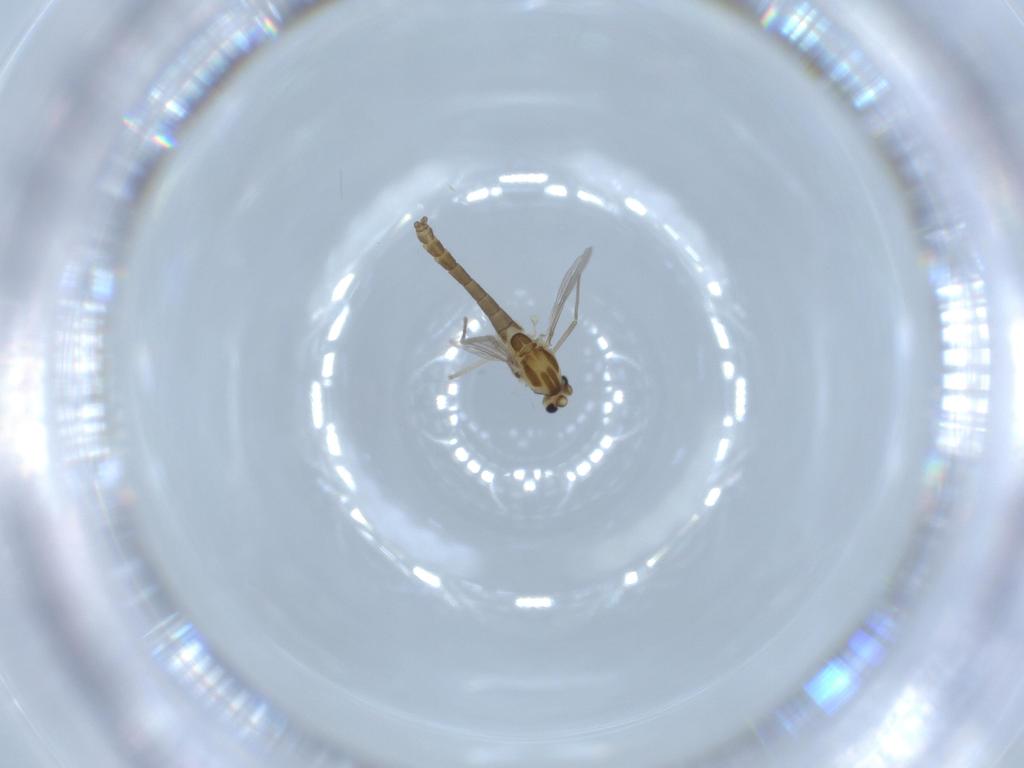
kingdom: Animalia
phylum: Arthropoda
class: Insecta
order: Diptera
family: Chironomidae
